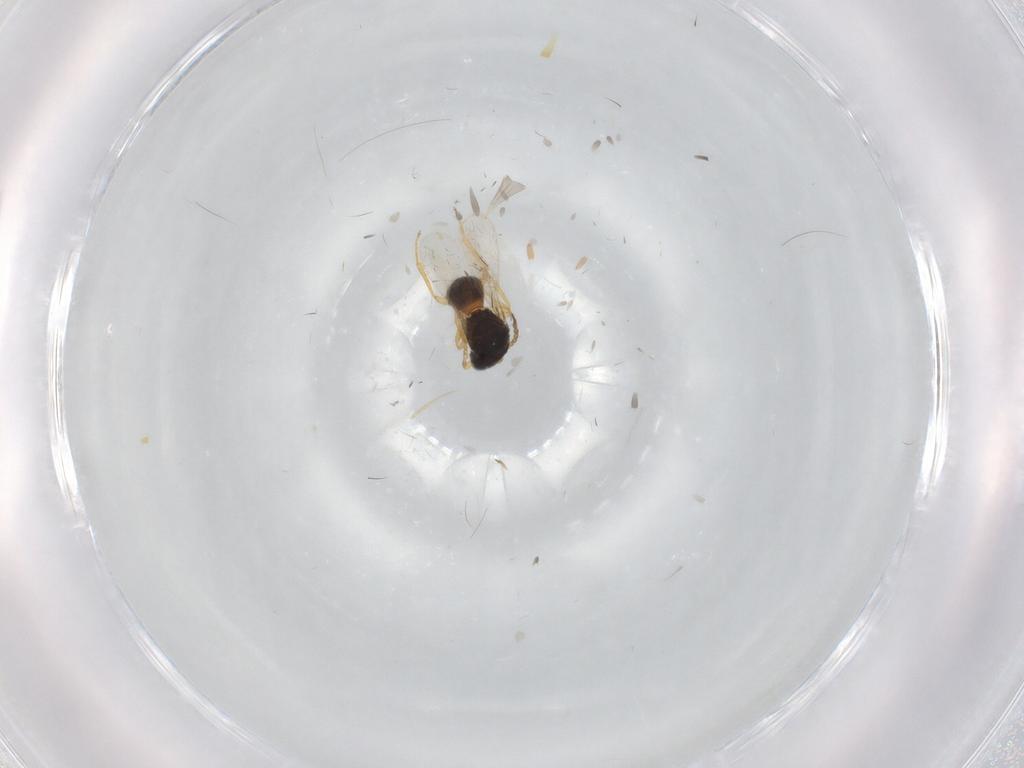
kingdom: Animalia
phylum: Arthropoda
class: Insecta
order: Hymenoptera
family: Scelionidae
